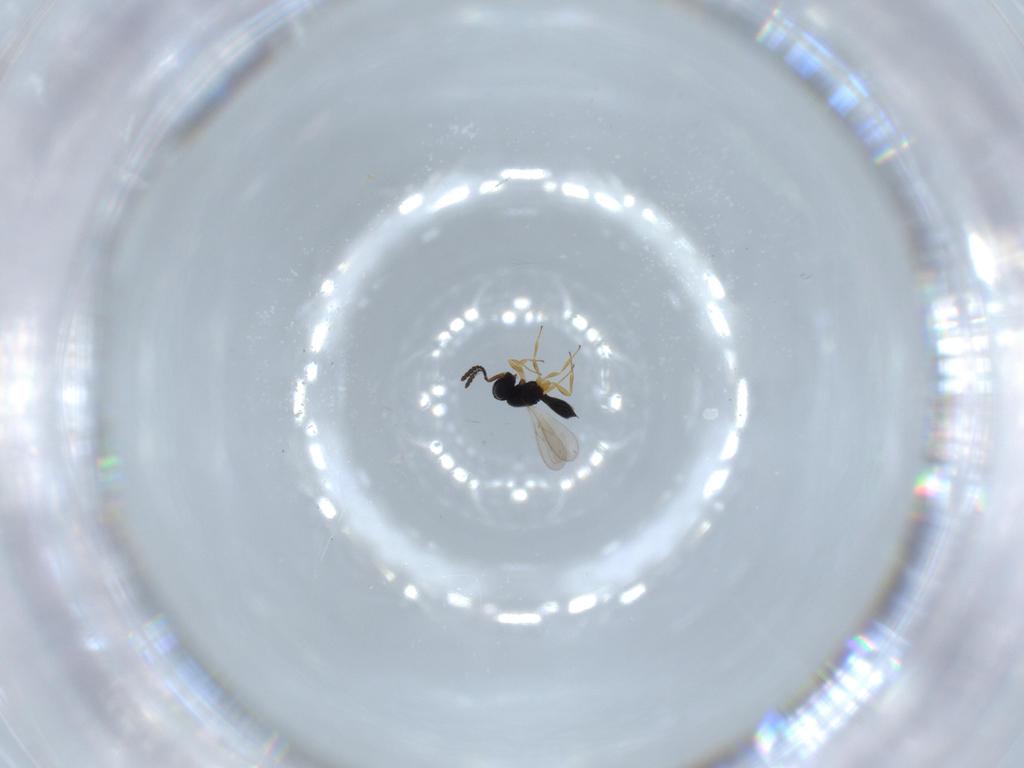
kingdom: Animalia
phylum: Arthropoda
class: Insecta
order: Hymenoptera
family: Scelionidae
